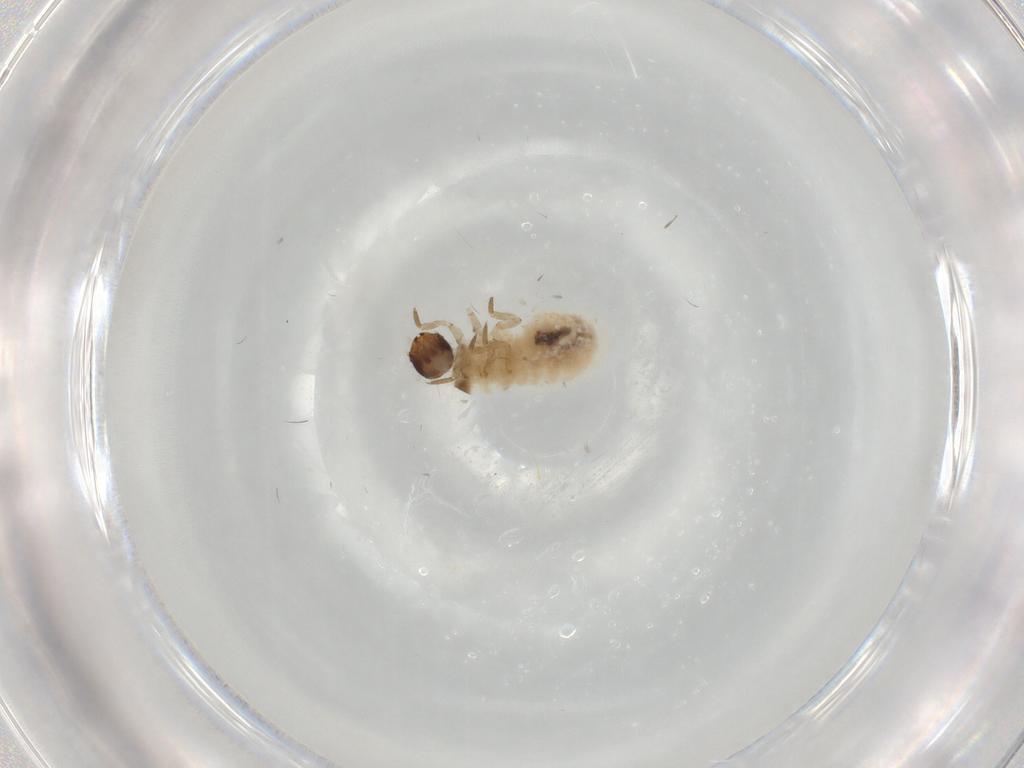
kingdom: Animalia
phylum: Arthropoda
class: Insecta
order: Coleoptera
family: Chrysomelidae
